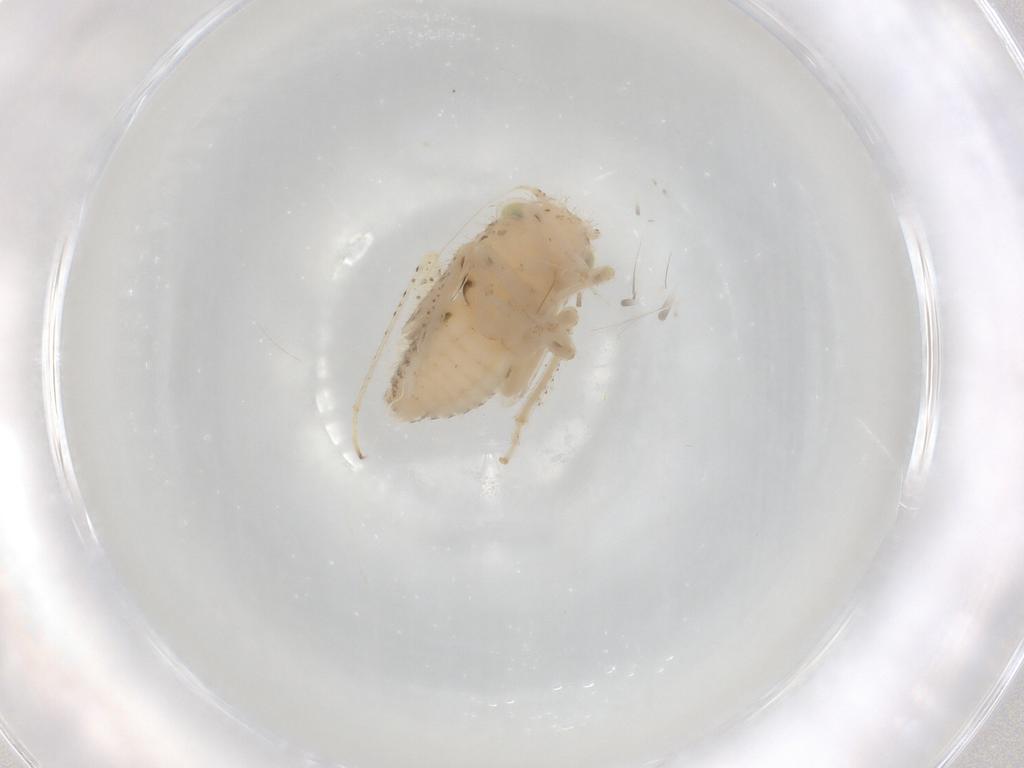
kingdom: Animalia
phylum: Arthropoda
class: Insecta
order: Hemiptera
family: Cicadellidae
